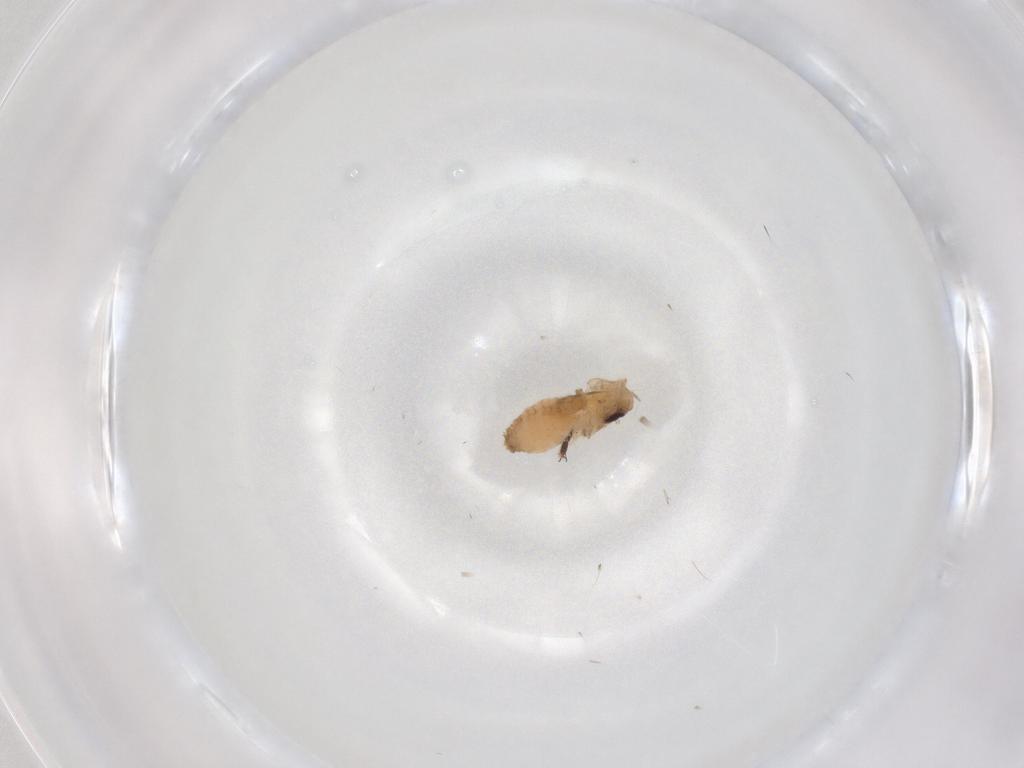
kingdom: Animalia
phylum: Arthropoda
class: Insecta
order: Diptera
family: Psychodidae
